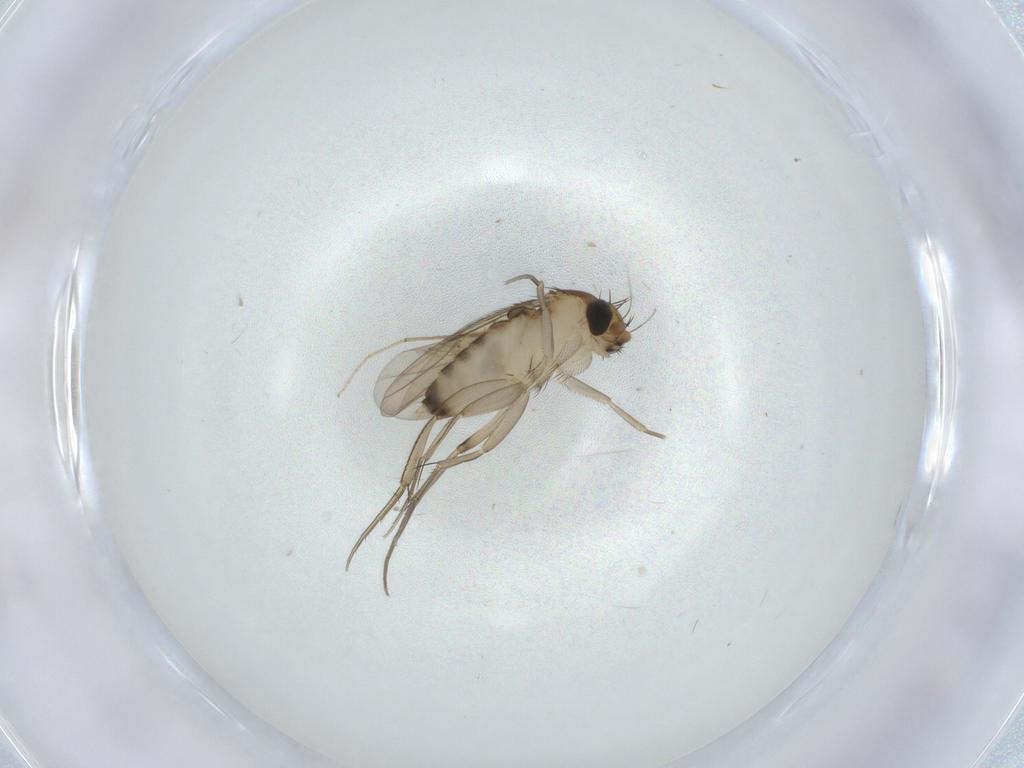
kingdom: Animalia
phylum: Arthropoda
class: Insecta
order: Diptera
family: Phoridae
